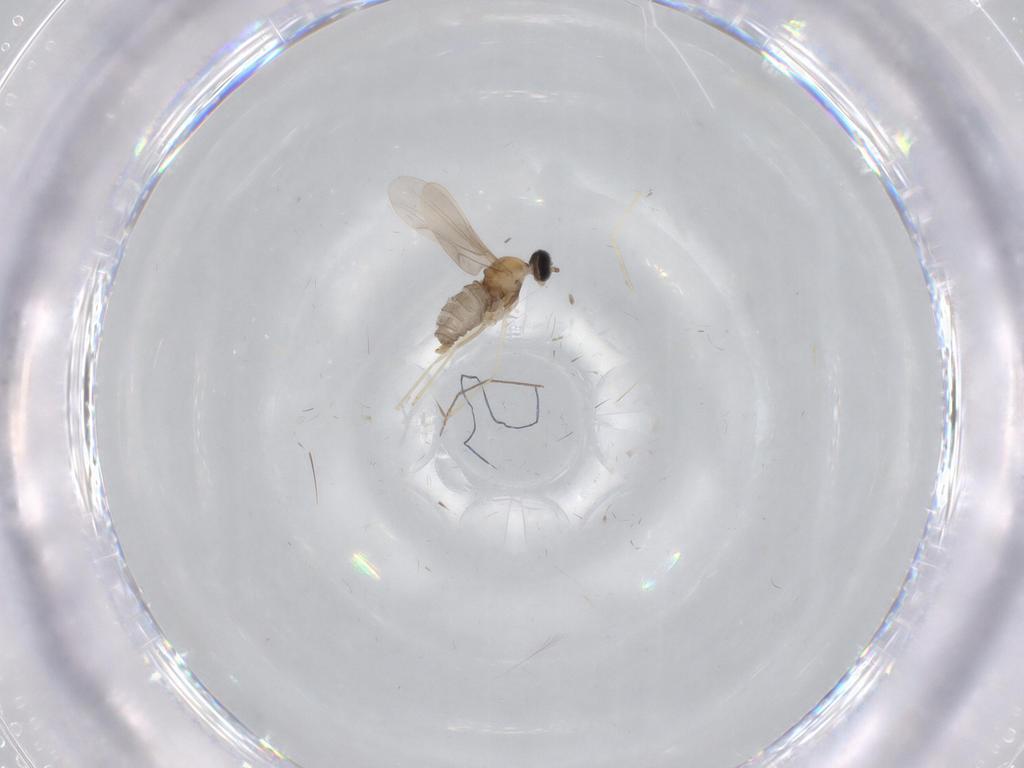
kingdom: Animalia
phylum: Arthropoda
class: Insecta
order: Diptera
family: Cecidomyiidae
